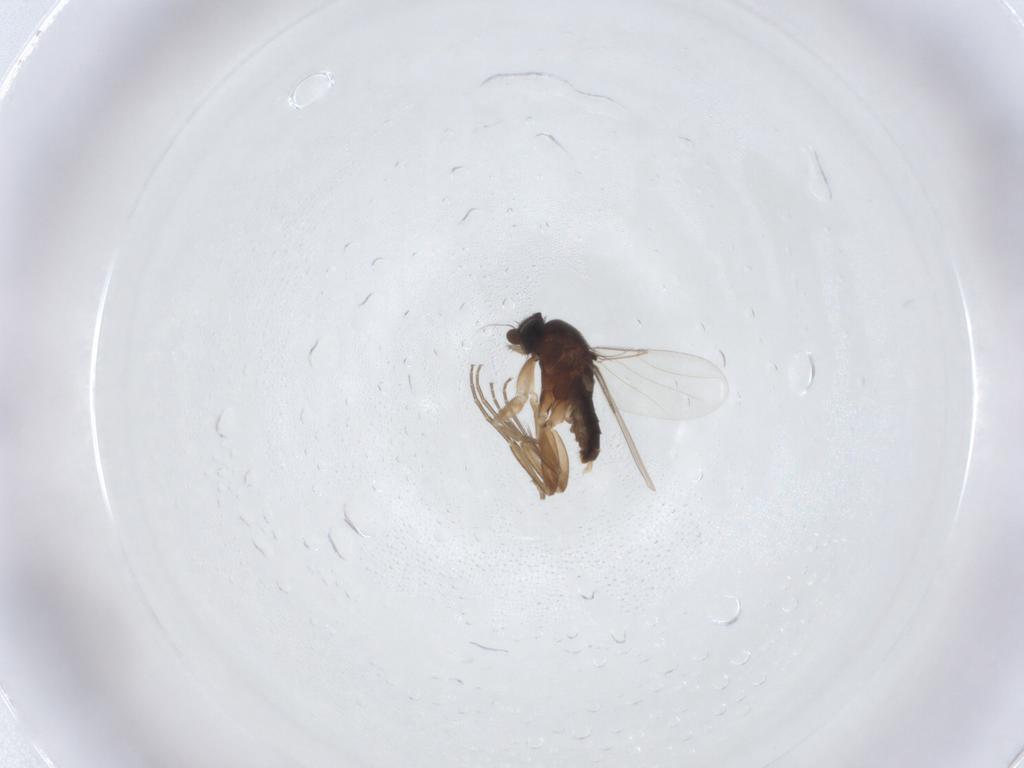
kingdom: Animalia
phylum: Arthropoda
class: Insecta
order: Diptera
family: Phoridae
